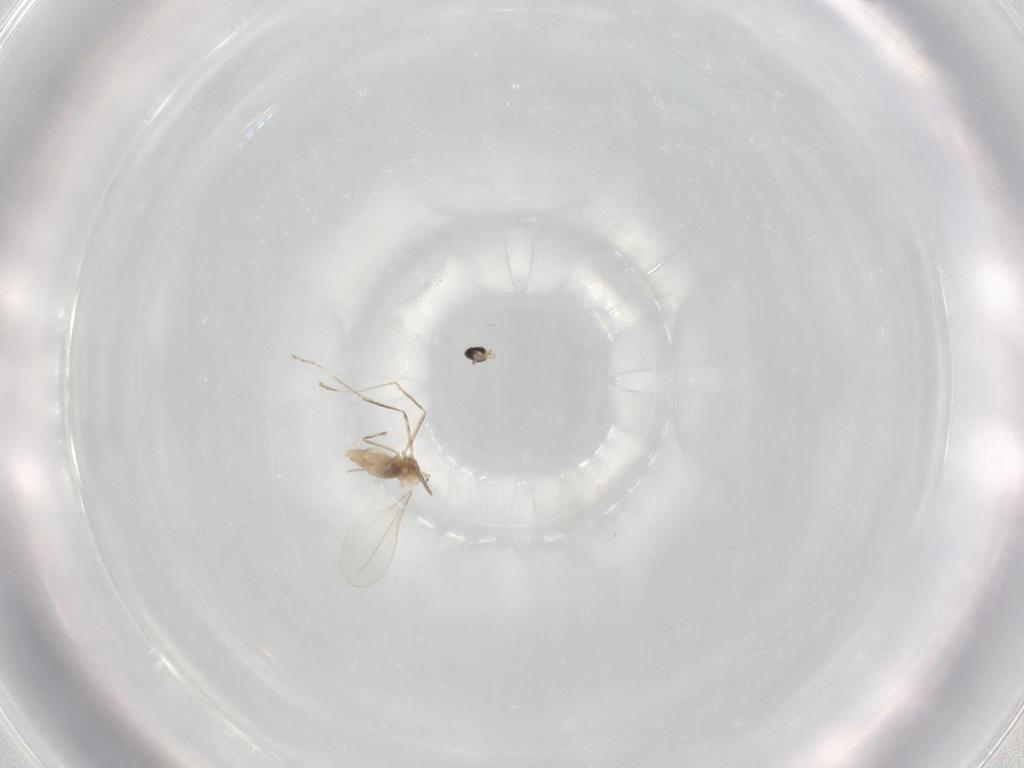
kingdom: Animalia
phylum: Arthropoda
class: Insecta
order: Diptera
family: Cecidomyiidae
